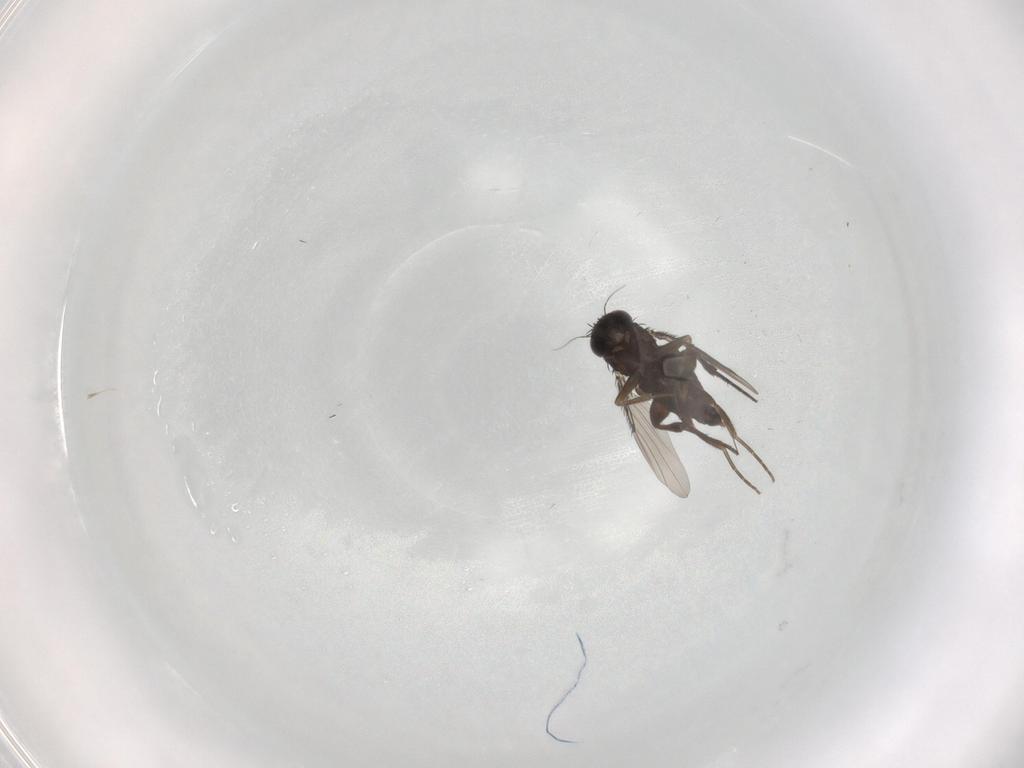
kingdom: Animalia
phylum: Arthropoda
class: Insecta
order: Diptera
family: Phoridae
